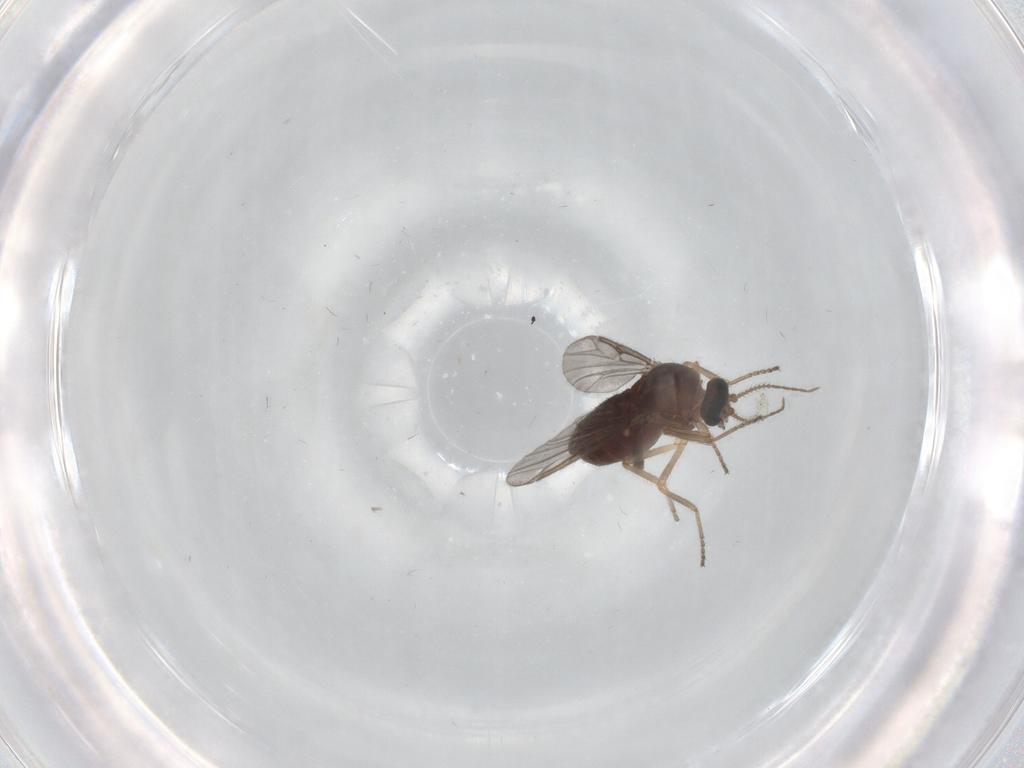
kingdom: Animalia
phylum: Arthropoda
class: Insecta
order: Diptera
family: Ceratopogonidae
